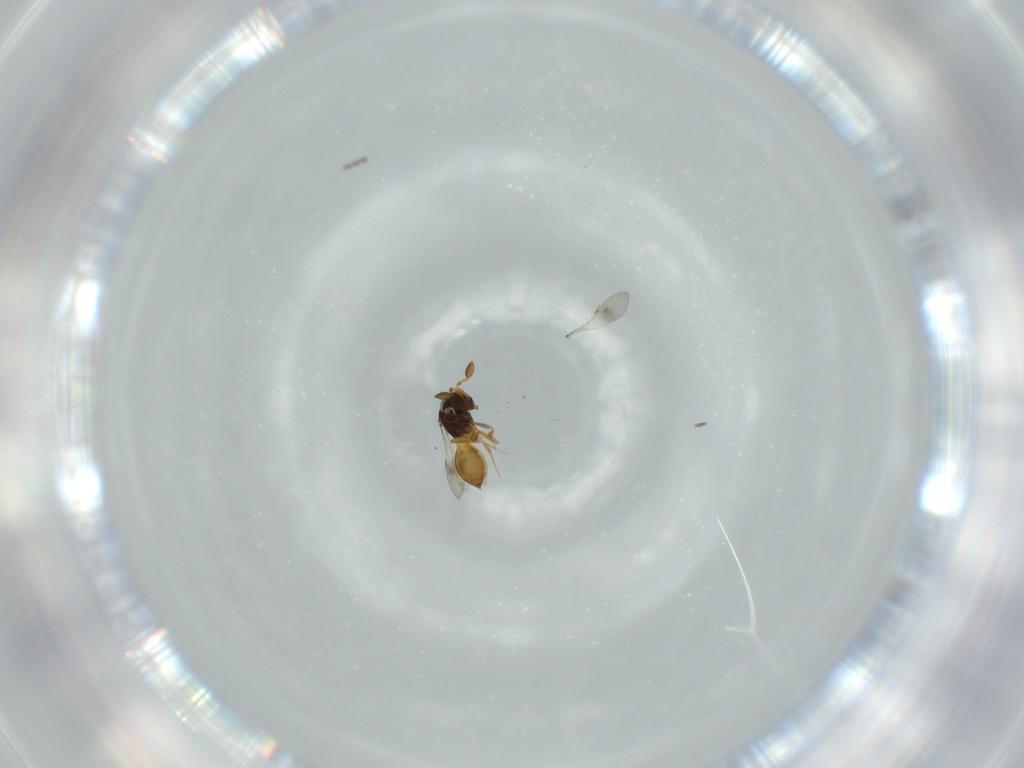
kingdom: Animalia
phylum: Arthropoda
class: Insecta
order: Hymenoptera
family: Scelionidae
